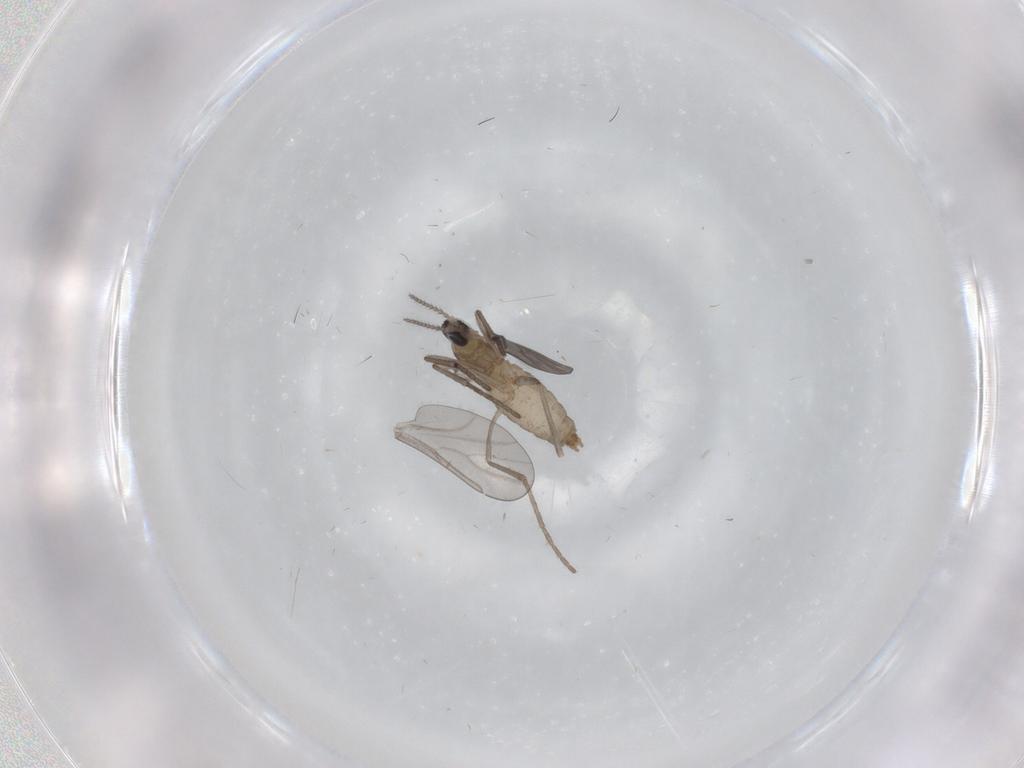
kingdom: Animalia
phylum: Arthropoda
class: Insecta
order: Diptera
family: Cecidomyiidae
